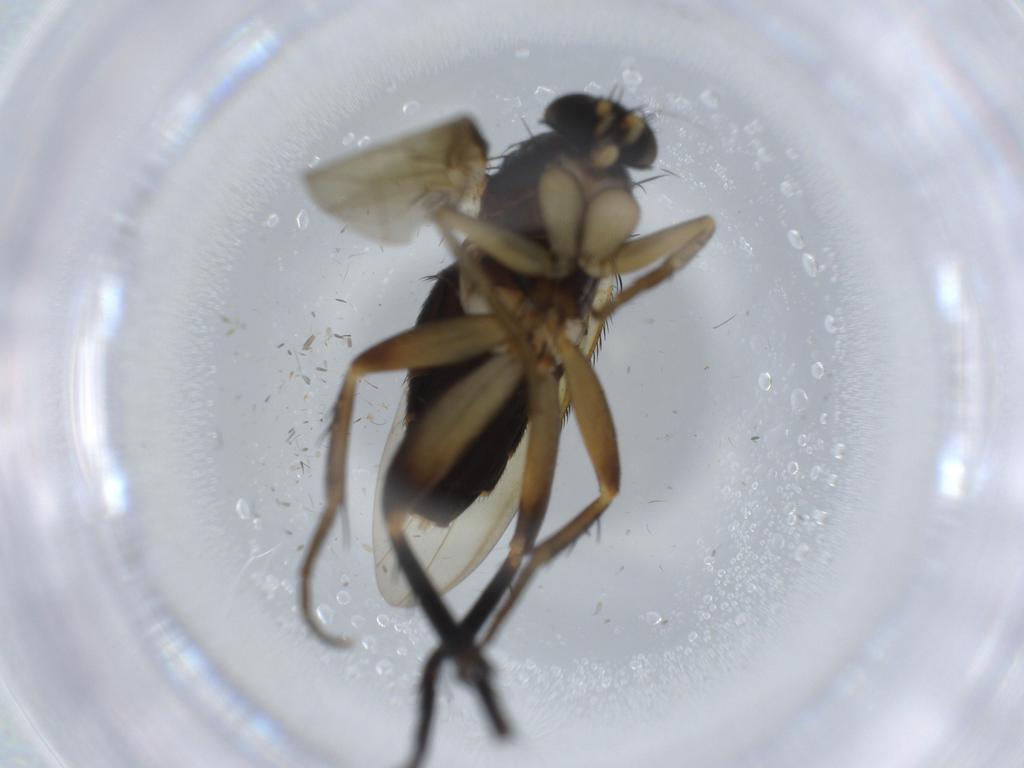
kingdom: Animalia
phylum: Arthropoda
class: Insecta
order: Diptera
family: Phoridae
